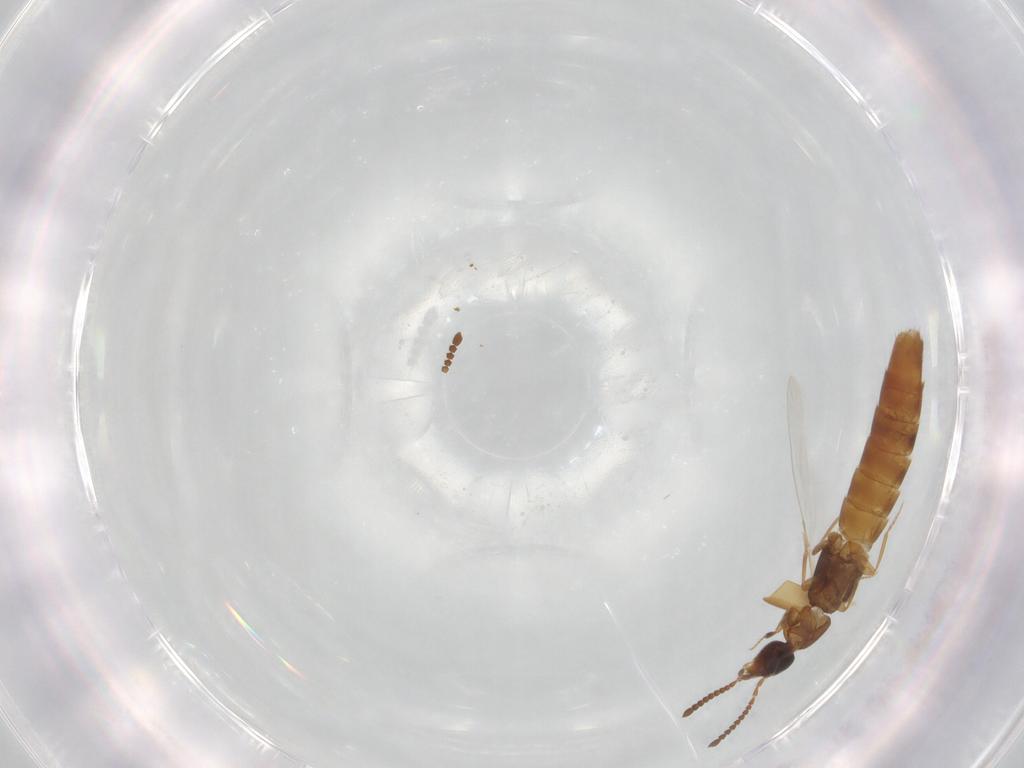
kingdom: Animalia
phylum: Arthropoda
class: Insecta
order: Coleoptera
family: Staphylinidae
